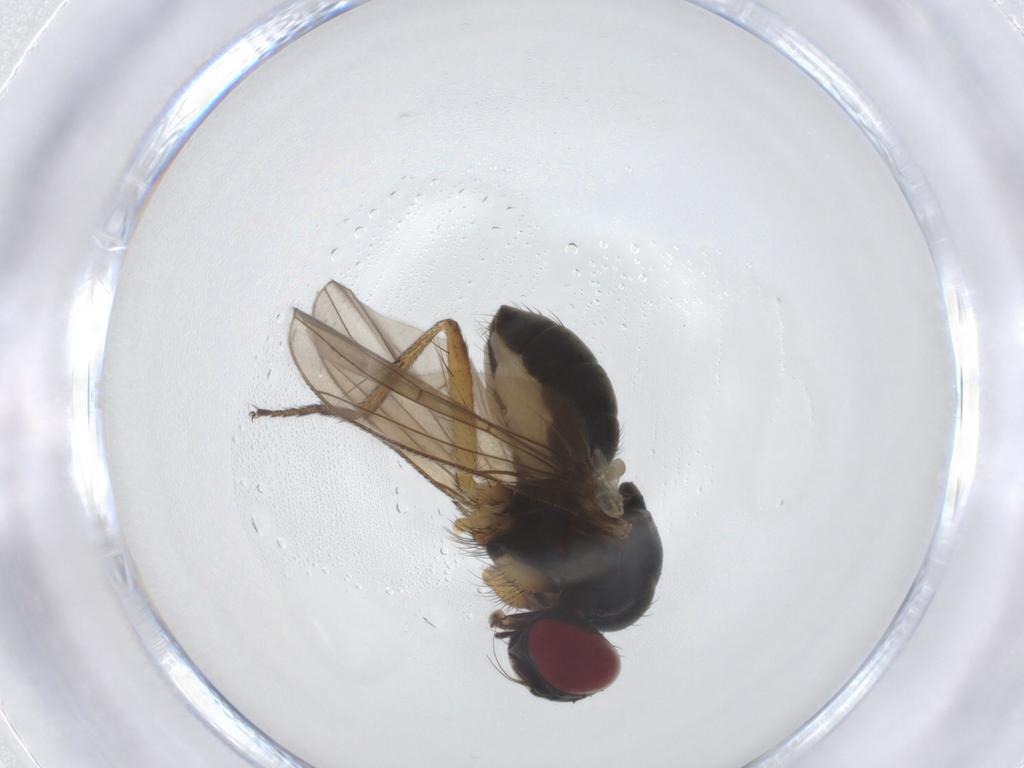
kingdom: Animalia
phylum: Arthropoda
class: Insecta
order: Diptera
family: Muscidae
